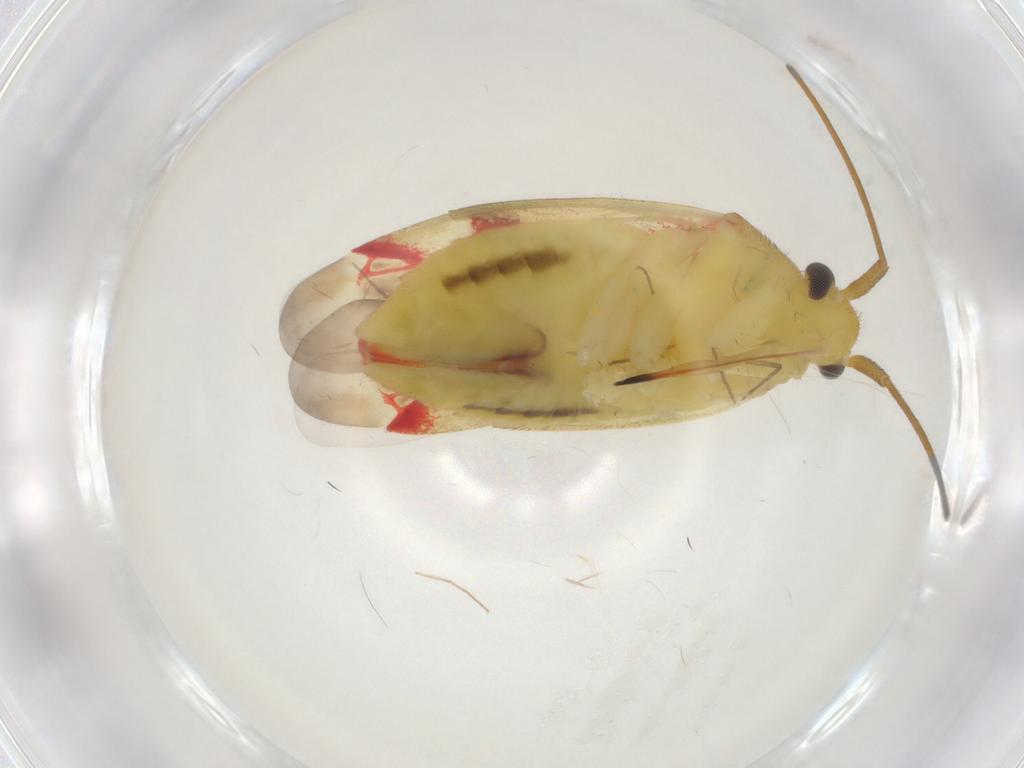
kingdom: Animalia
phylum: Arthropoda
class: Insecta
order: Hemiptera
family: Miridae
